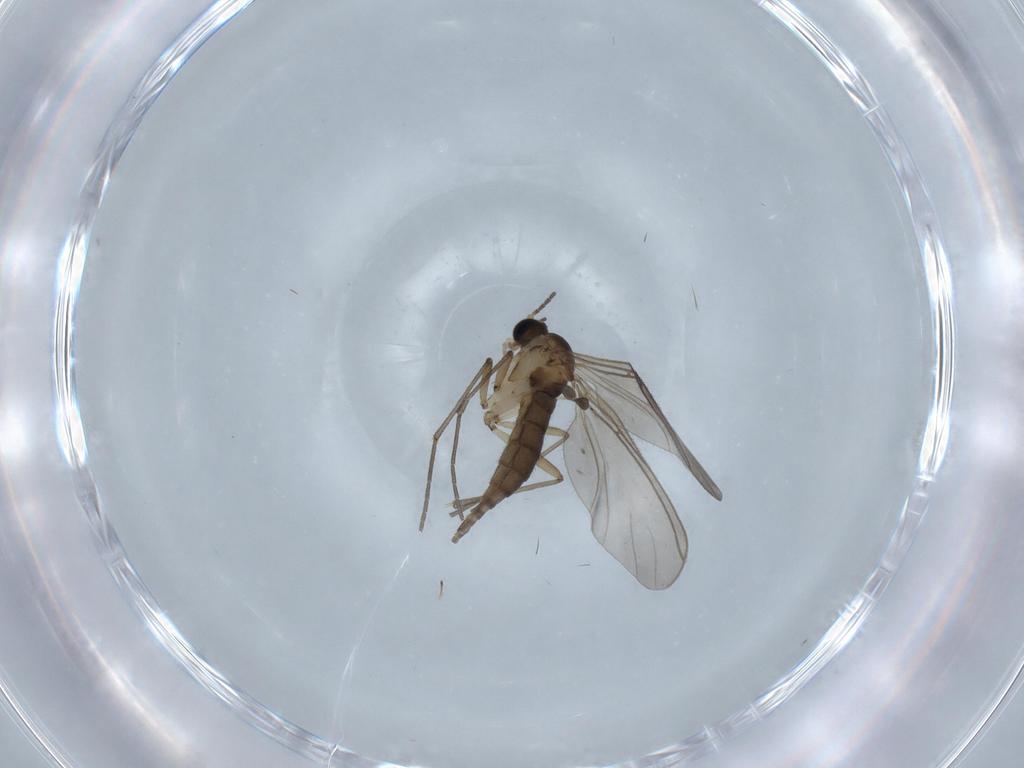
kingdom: Animalia
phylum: Arthropoda
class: Insecta
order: Diptera
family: Sciaridae
